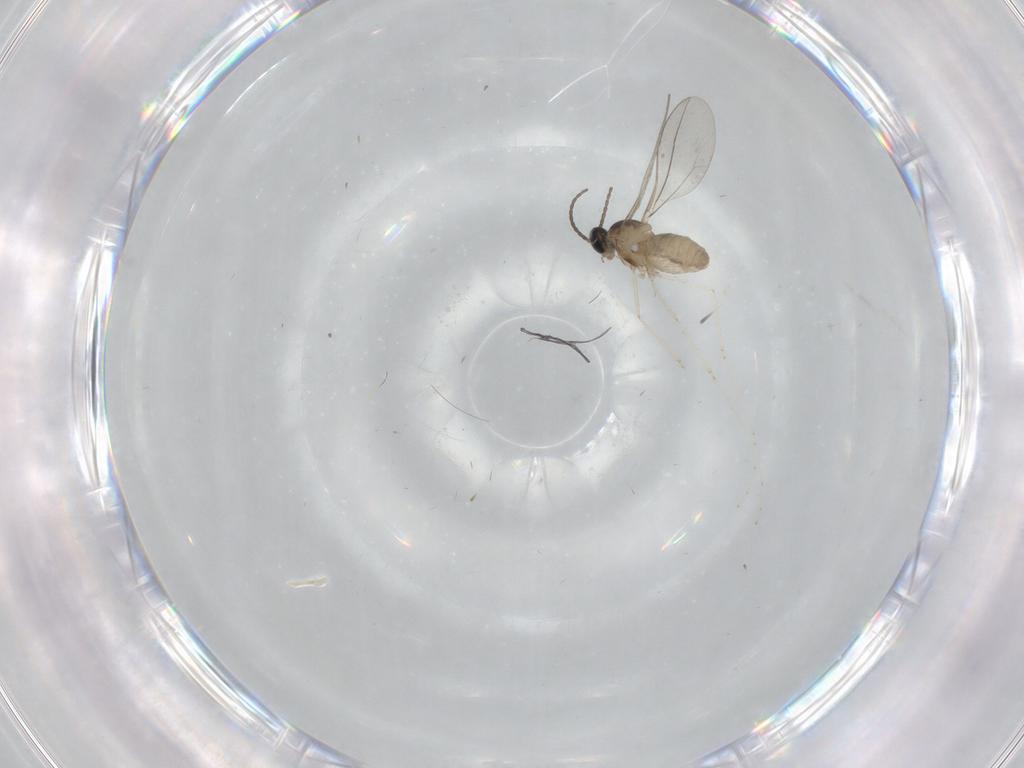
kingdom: Animalia
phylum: Arthropoda
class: Insecta
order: Diptera
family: Cecidomyiidae
